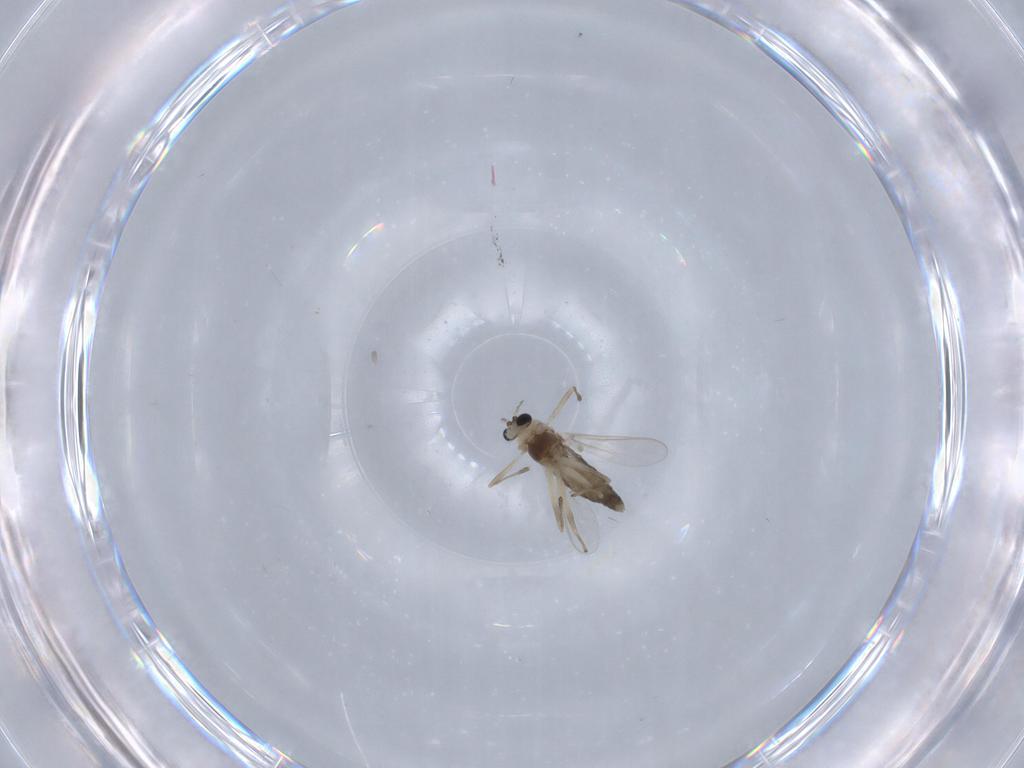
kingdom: Animalia
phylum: Arthropoda
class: Insecta
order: Diptera
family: Chironomidae
